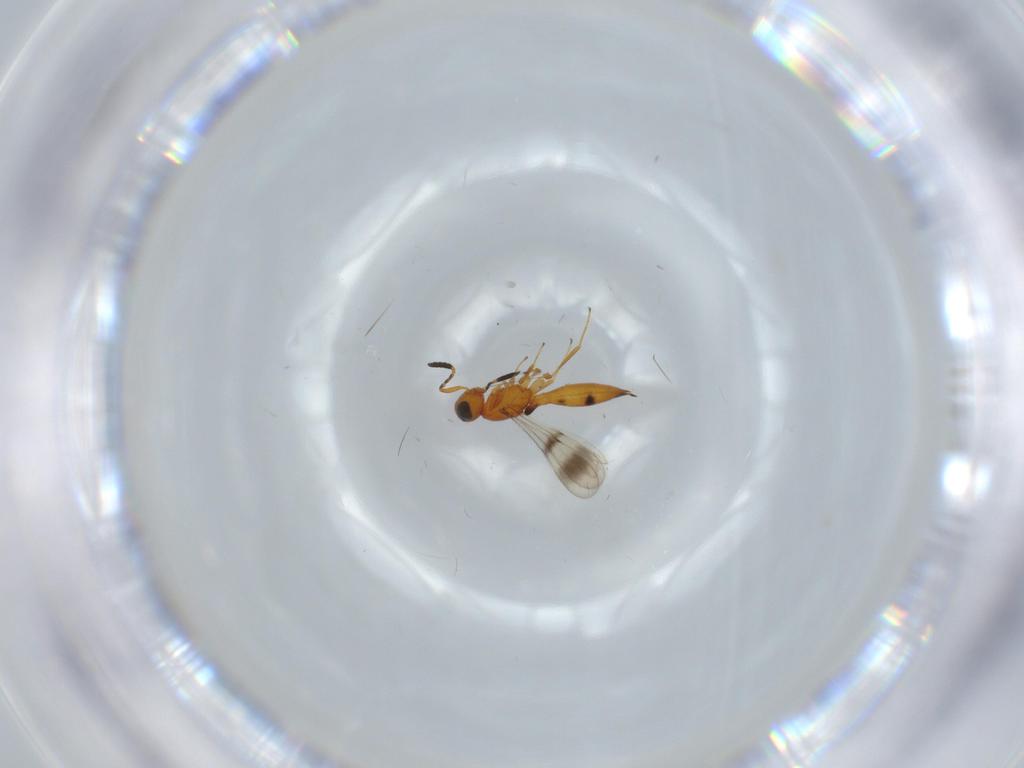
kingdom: Animalia
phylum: Arthropoda
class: Insecta
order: Hymenoptera
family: Scelionidae
